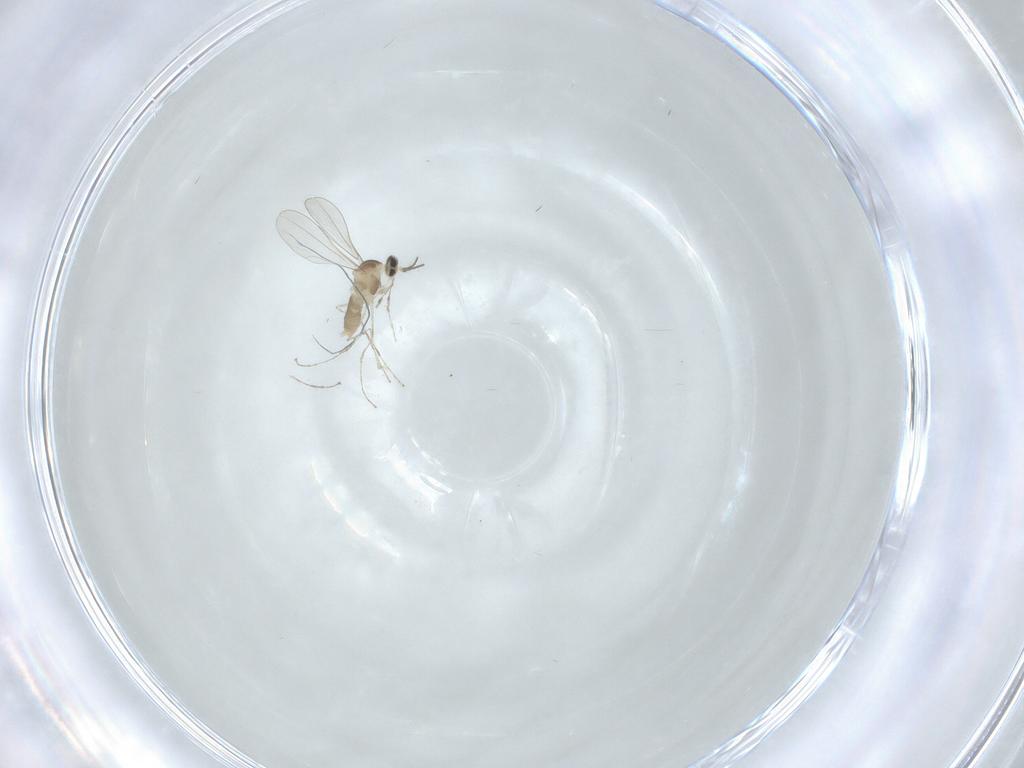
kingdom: Animalia
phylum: Arthropoda
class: Insecta
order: Diptera
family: Cecidomyiidae
